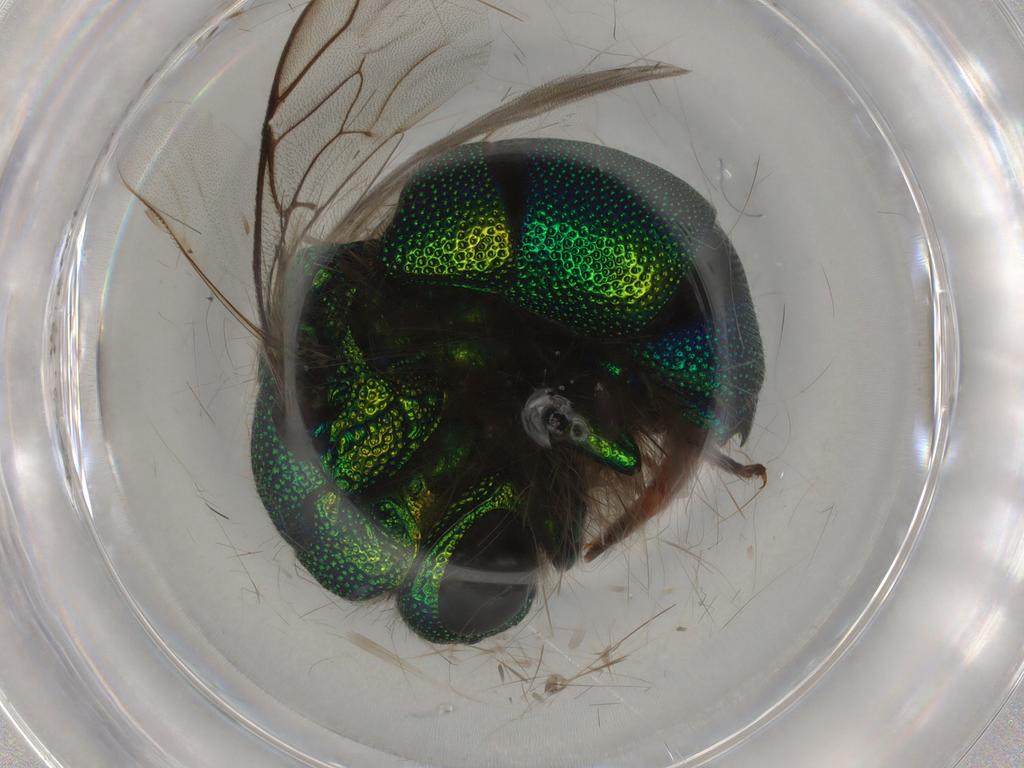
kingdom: Animalia
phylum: Arthropoda
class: Insecta
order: Hymenoptera
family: Chrysididae
